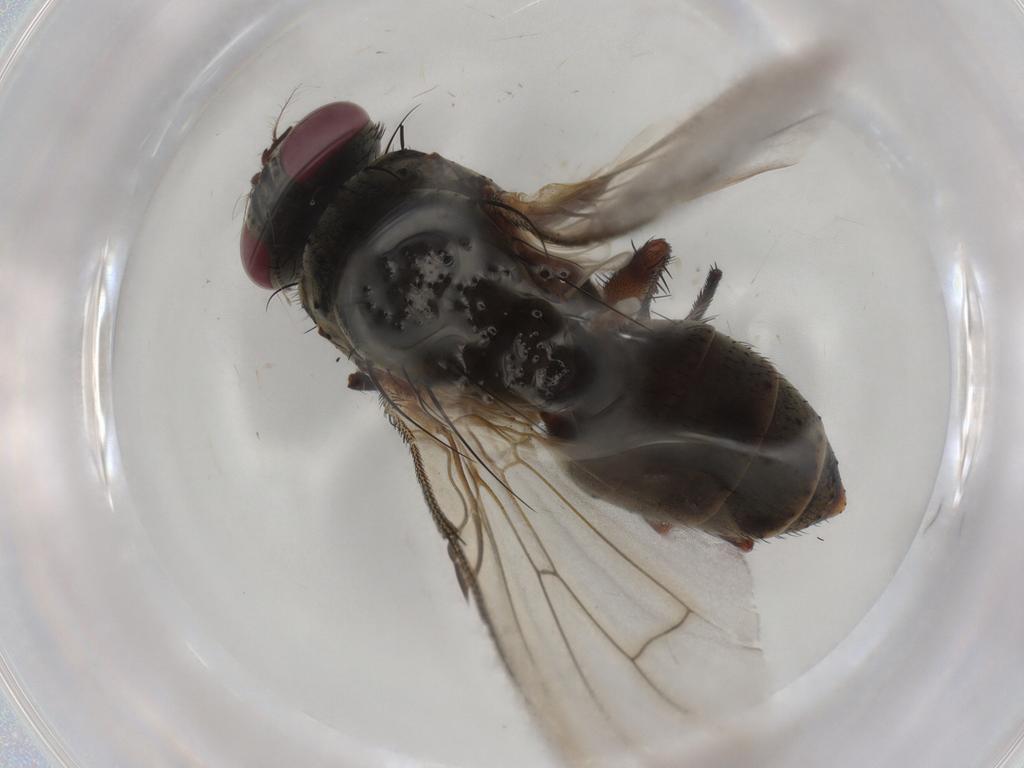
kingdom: Animalia
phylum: Arthropoda
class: Insecta
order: Diptera
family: Muscidae
